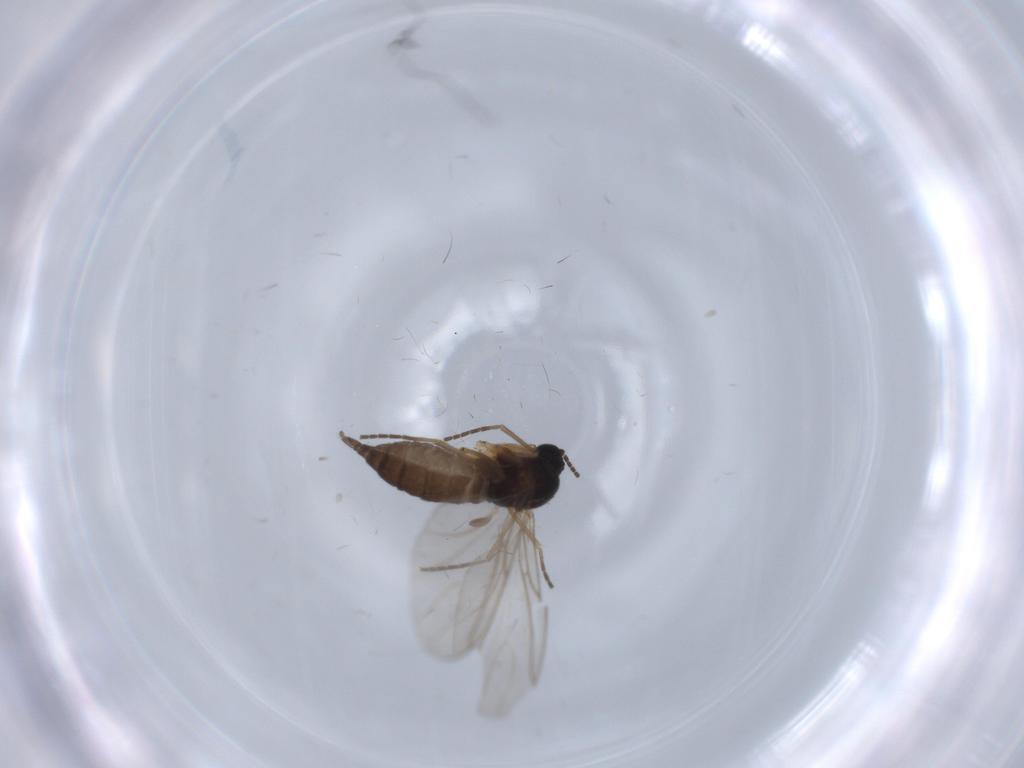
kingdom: Animalia
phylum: Arthropoda
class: Insecta
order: Diptera
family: Sciaridae
